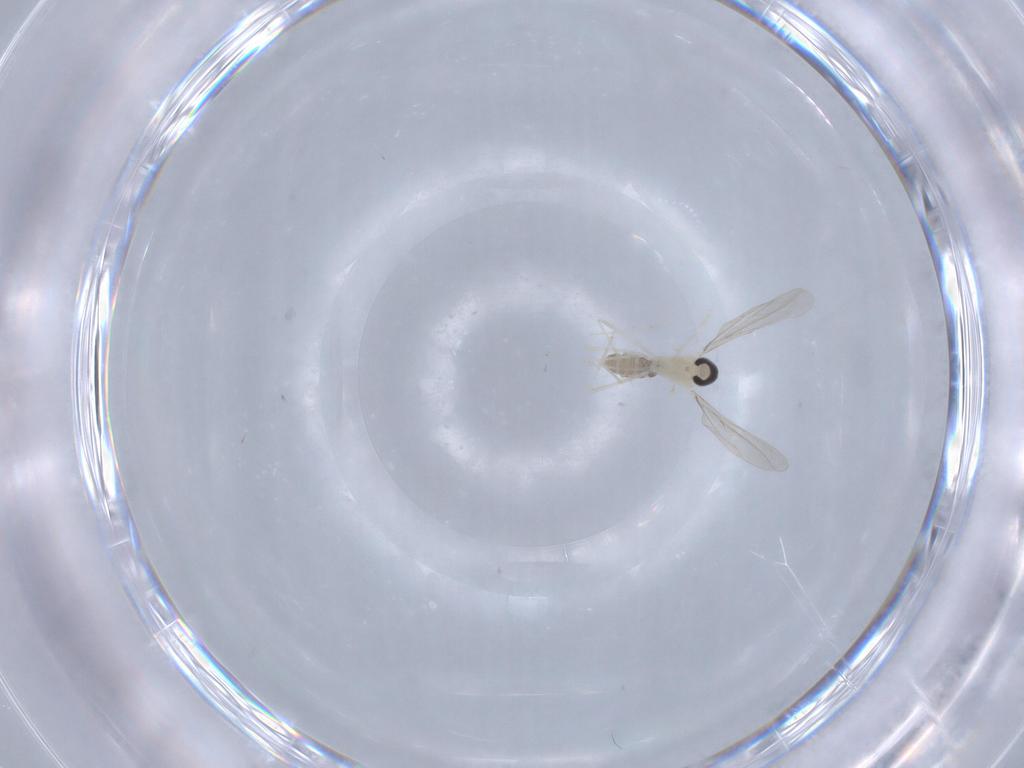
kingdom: Animalia
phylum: Arthropoda
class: Insecta
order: Diptera
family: Cecidomyiidae
